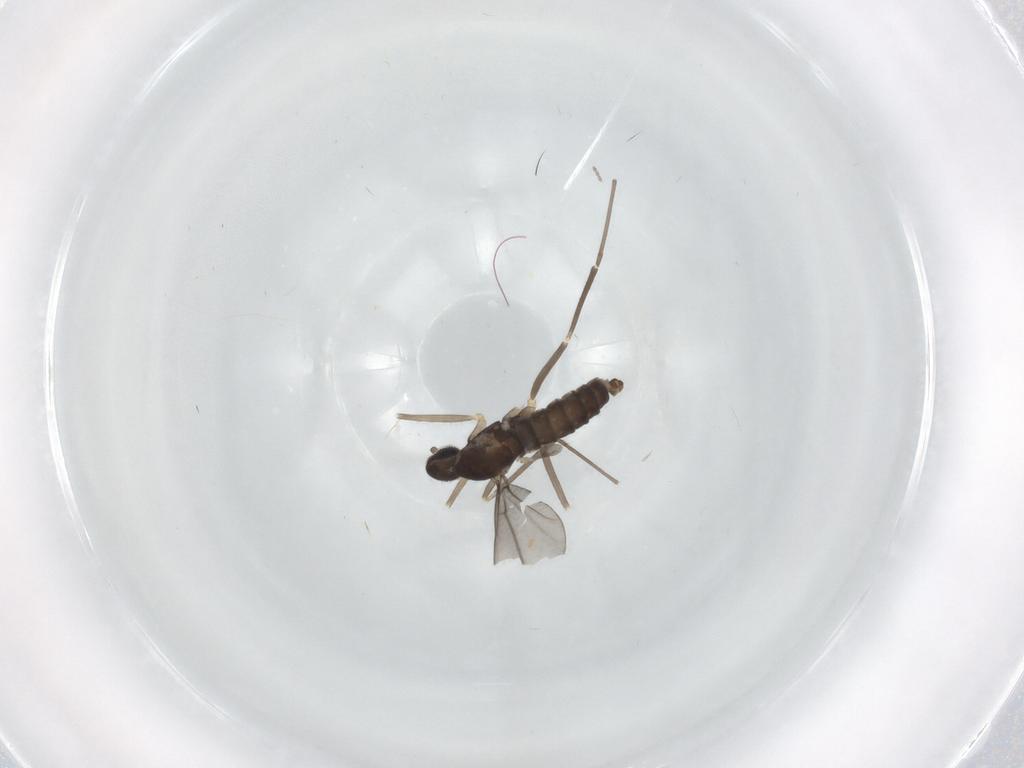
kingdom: Animalia
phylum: Arthropoda
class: Insecta
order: Diptera
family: Cecidomyiidae
